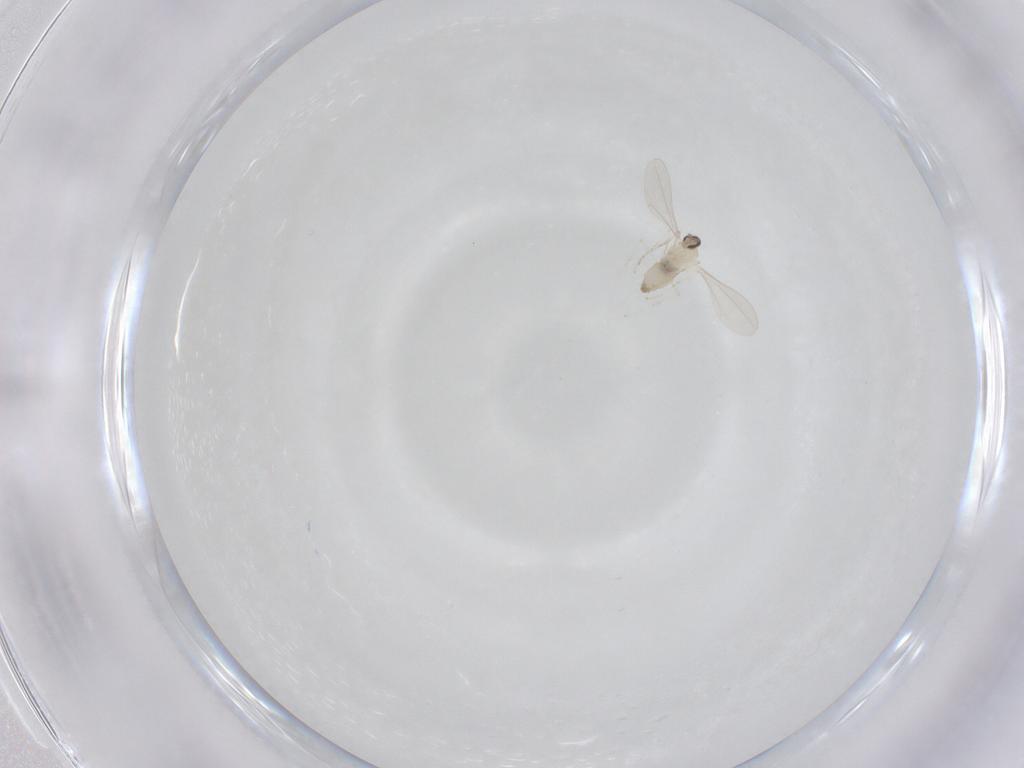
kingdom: Animalia
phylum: Arthropoda
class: Insecta
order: Diptera
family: Cecidomyiidae
